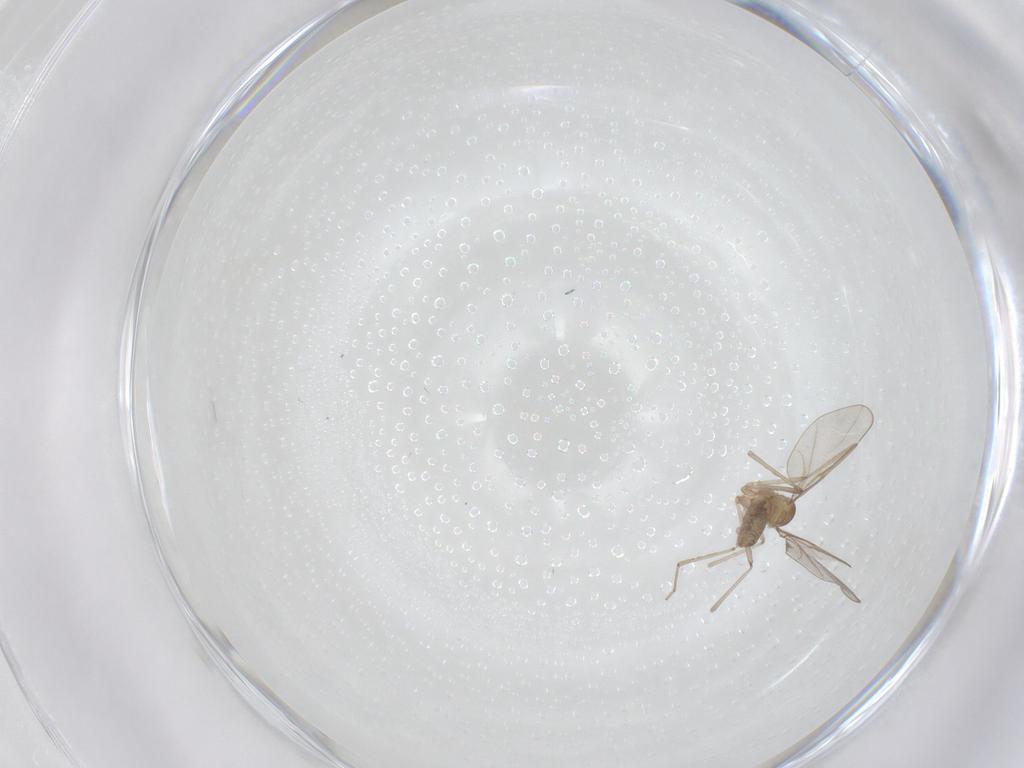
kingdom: Animalia
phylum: Arthropoda
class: Insecta
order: Diptera
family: Cecidomyiidae
